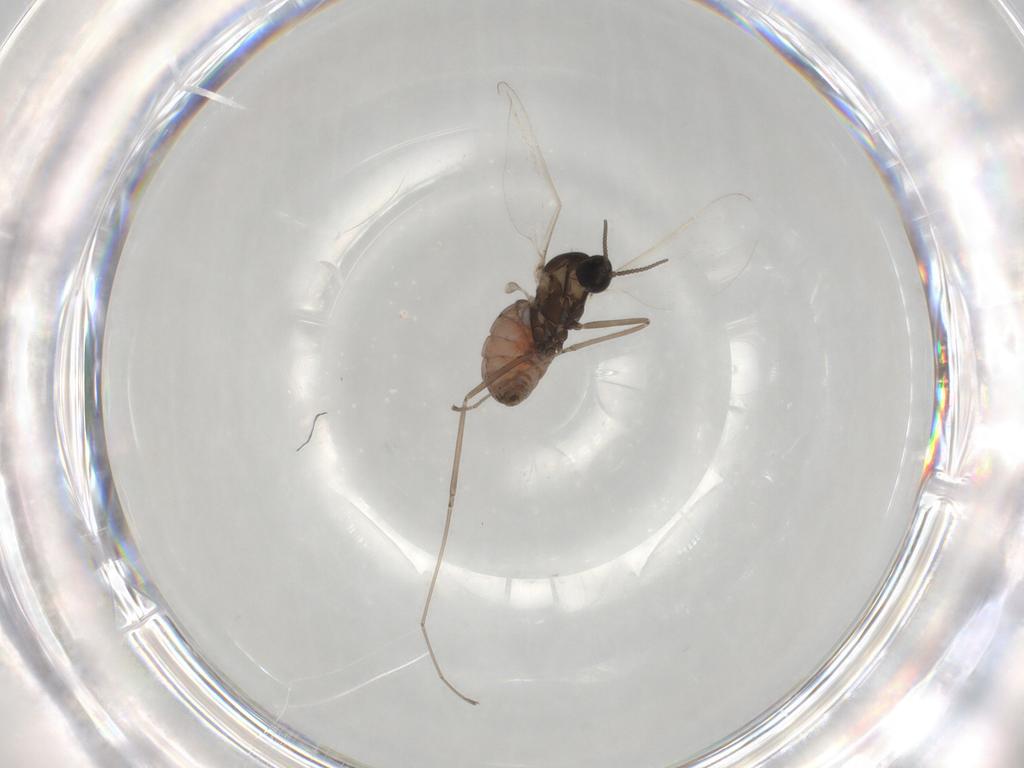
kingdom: Animalia
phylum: Arthropoda
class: Insecta
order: Diptera
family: Cecidomyiidae
